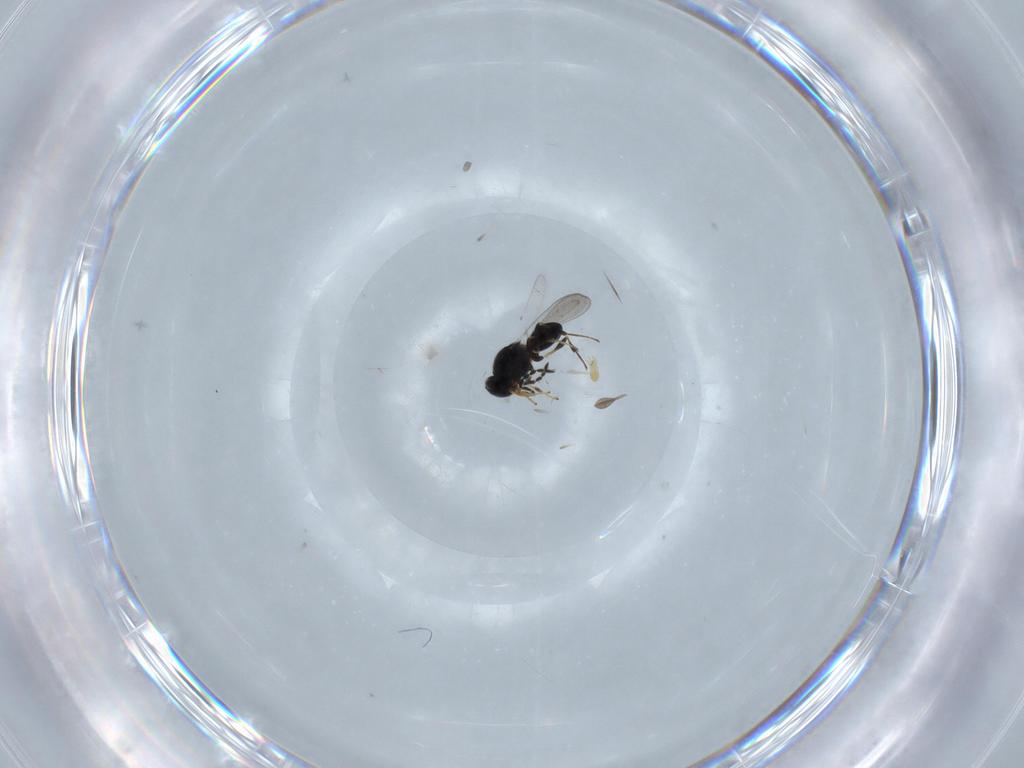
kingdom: Animalia
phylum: Arthropoda
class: Insecta
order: Hymenoptera
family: Platygastridae
